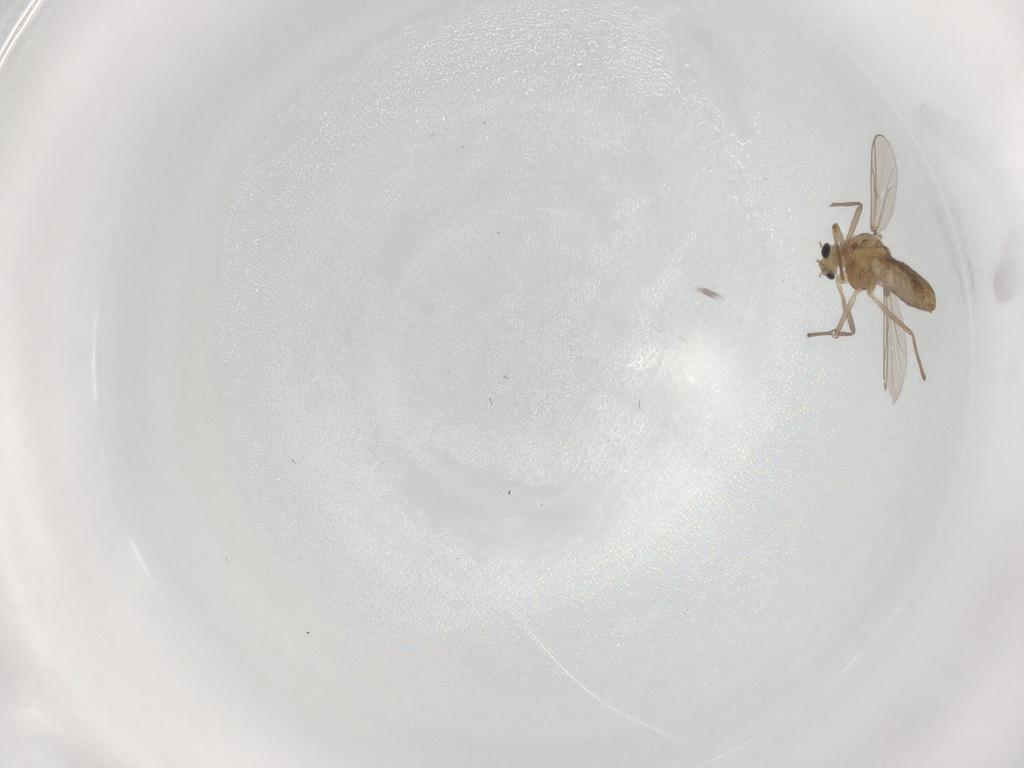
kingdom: Animalia
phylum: Arthropoda
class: Insecta
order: Diptera
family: Chironomidae
